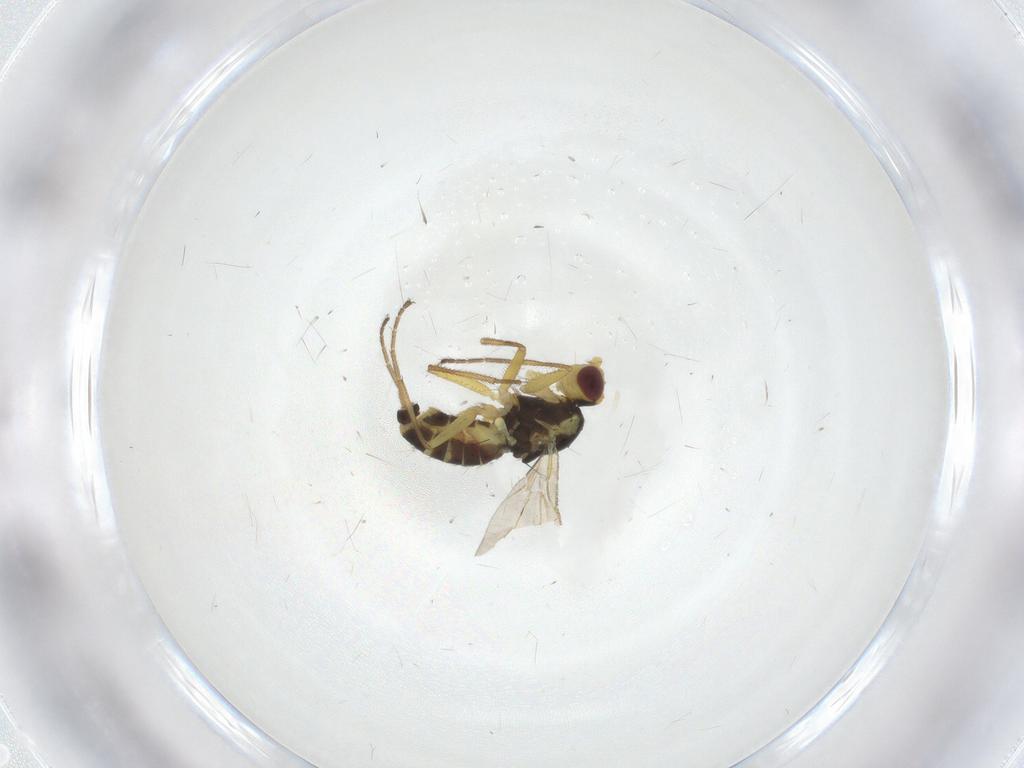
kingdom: Animalia
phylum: Arthropoda
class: Insecta
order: Diptera
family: Agromyzidae
